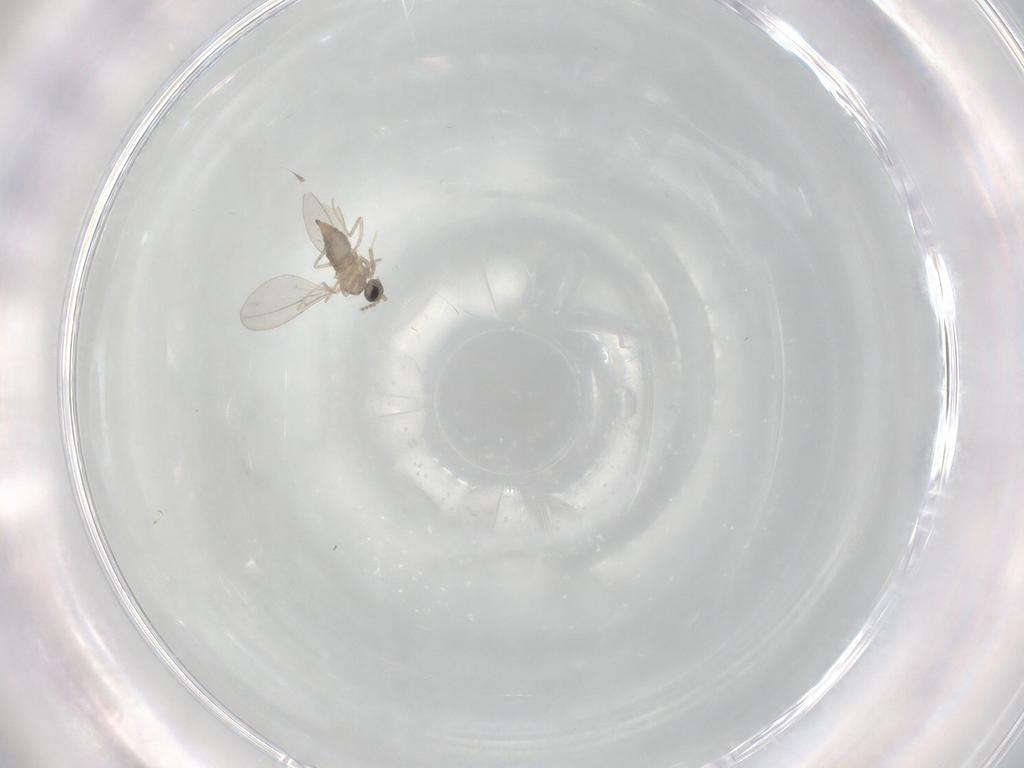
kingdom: Animalia
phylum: Arthropoda
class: Insecta
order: Diptera
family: Cecidomyiidae
